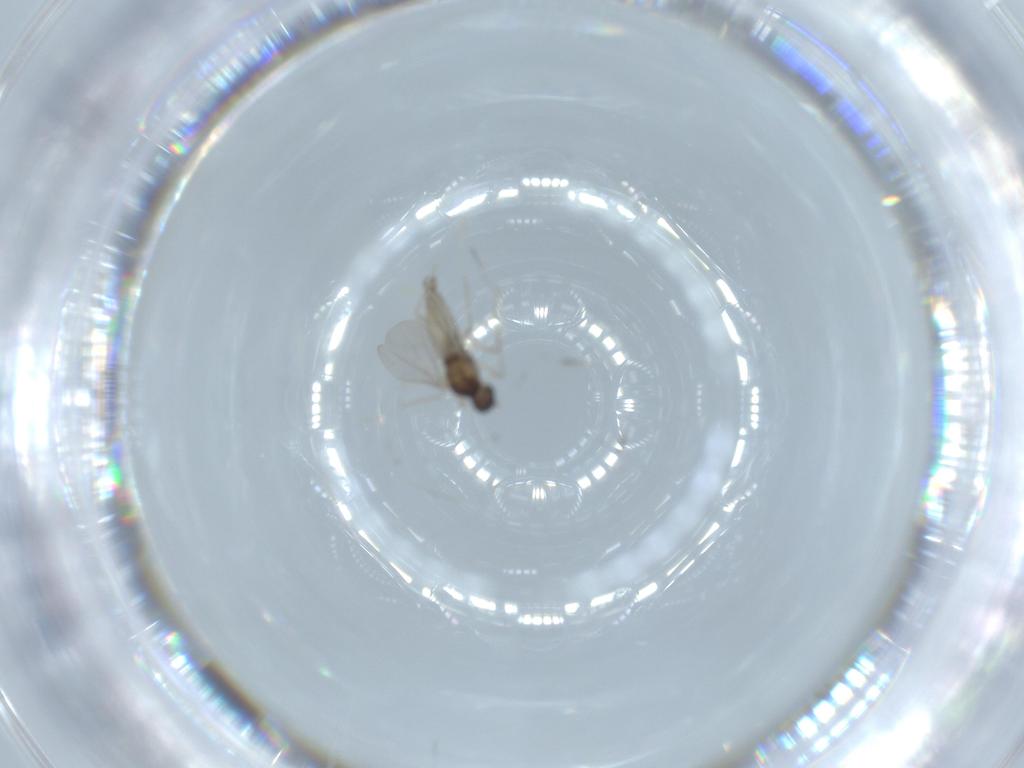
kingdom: Animalia
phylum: Arthropoda
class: Insecta
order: Diptera
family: Cecidomyiidae
